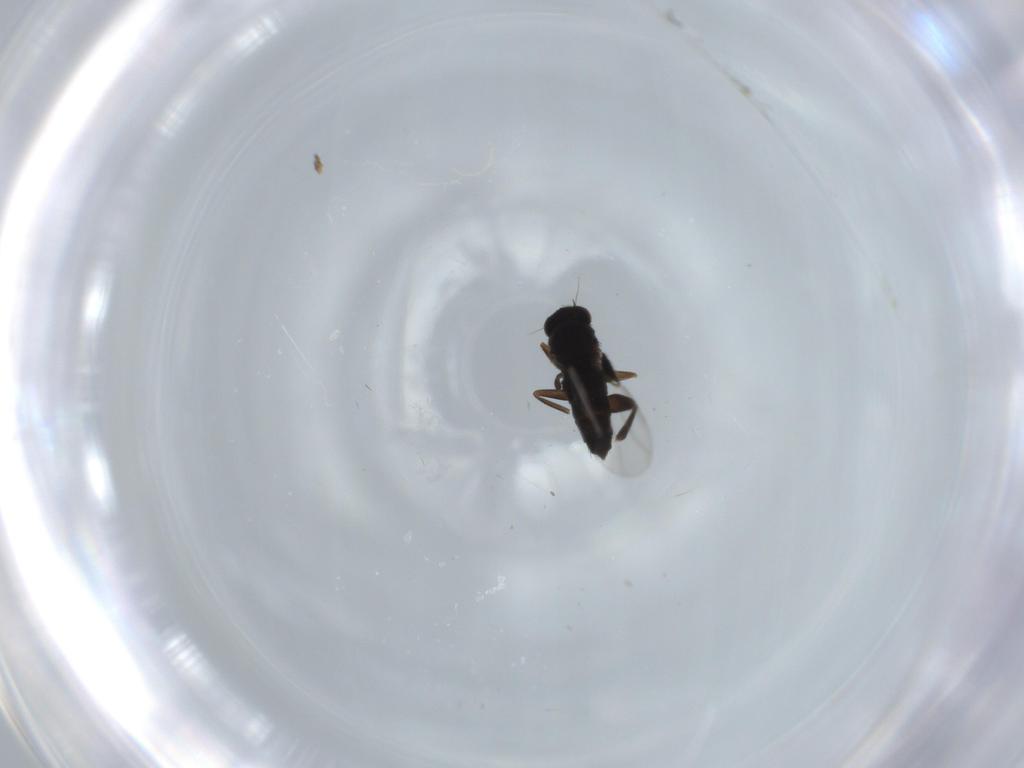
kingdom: Animalia
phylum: Arthropoda
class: Insecta
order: Diptera
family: Phoridae
